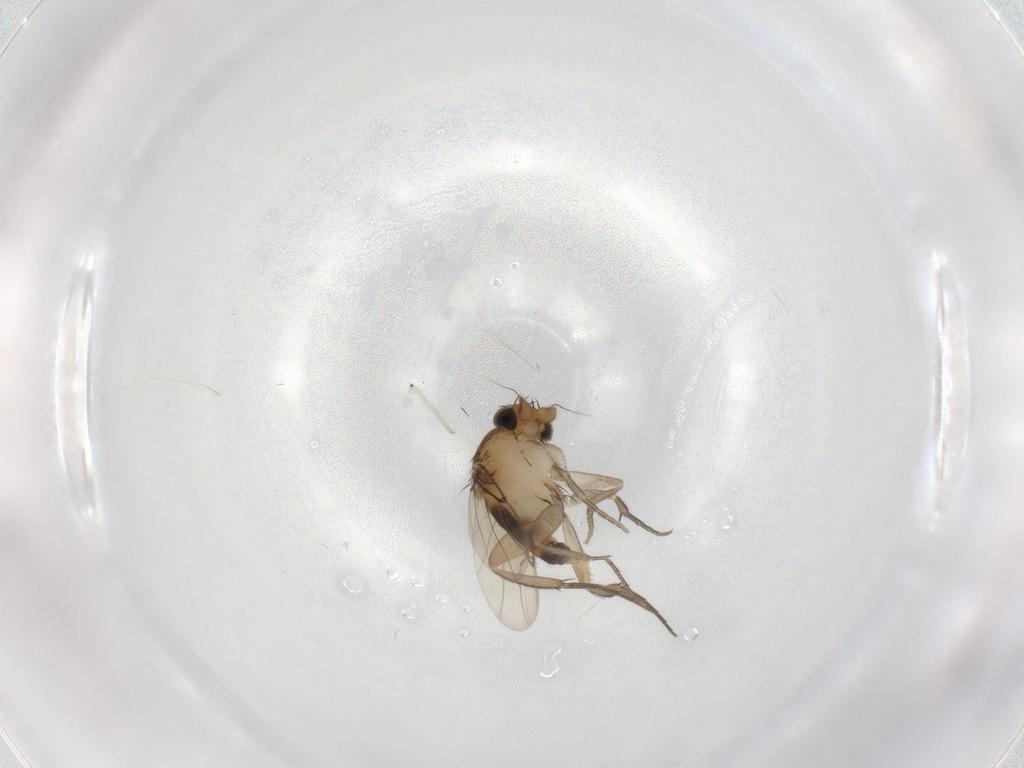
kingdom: Animalia
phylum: Arthropoda
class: Insecta
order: Diptera
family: Phoridae
